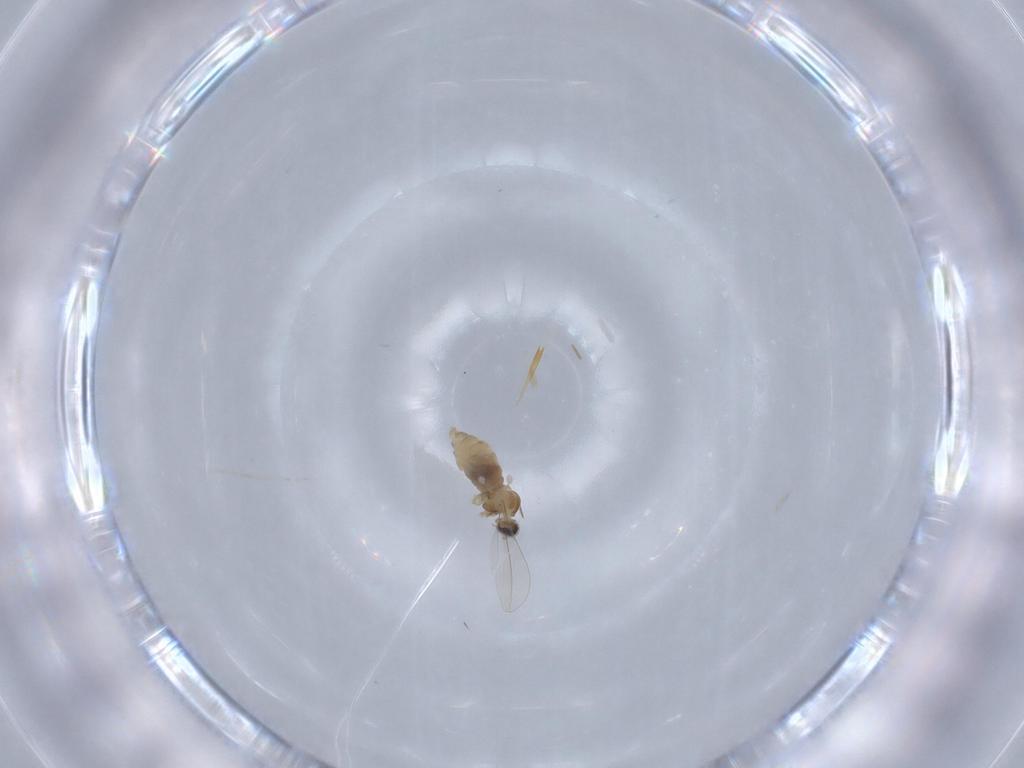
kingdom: Animalia
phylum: Arthropoda
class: Insecta
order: Diptera
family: Cecidomyiidae
